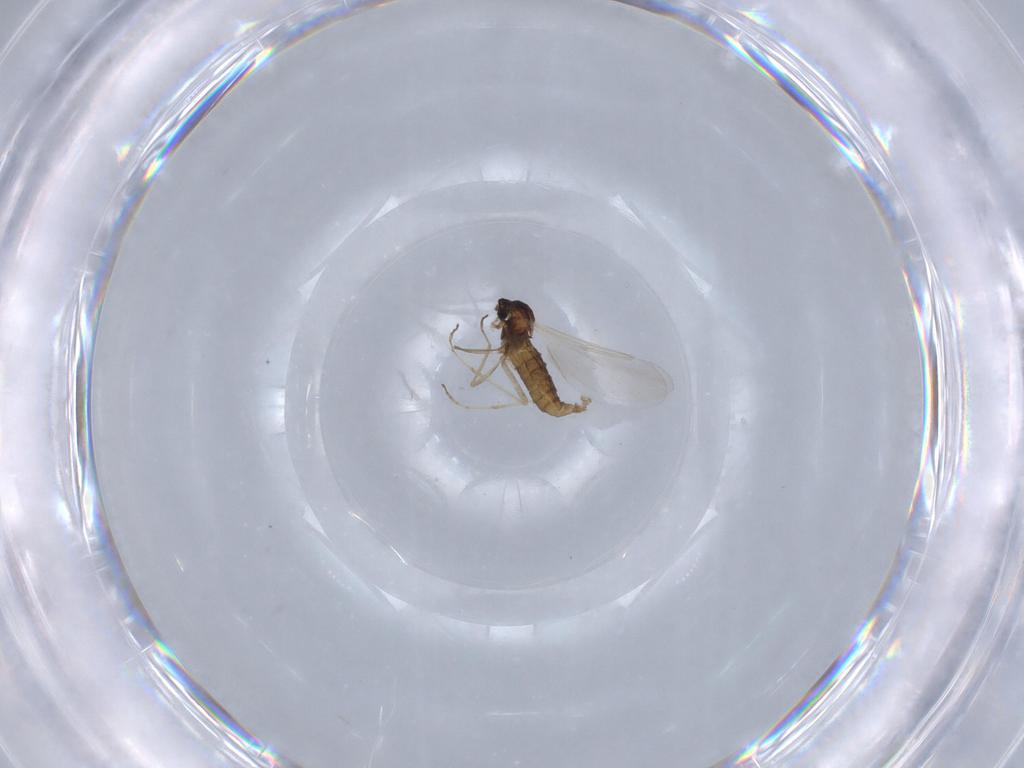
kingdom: Animalia
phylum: Arthropoda
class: Insecta
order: Diptera
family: Cecidomyiidae
